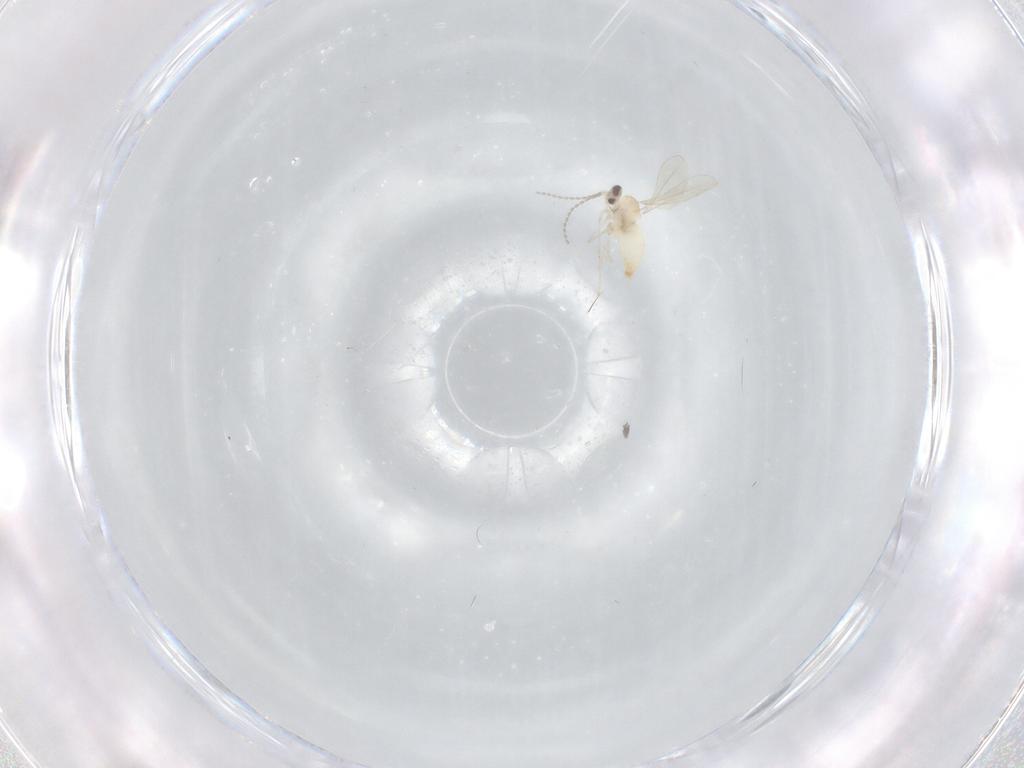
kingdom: Animalia
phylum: Arthropoda
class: Insecta
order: Diptera
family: Cecidomyiidae
